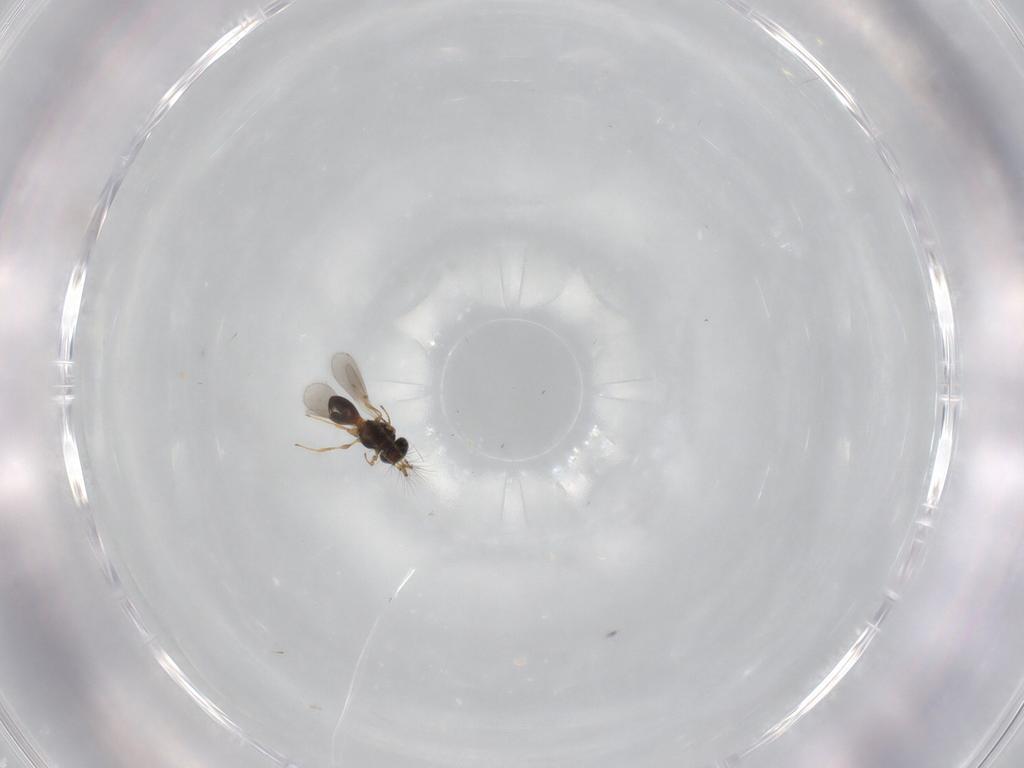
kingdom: Animalia
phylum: Arthropoda
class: Insecta
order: Hymenoptera
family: Platygastridae
